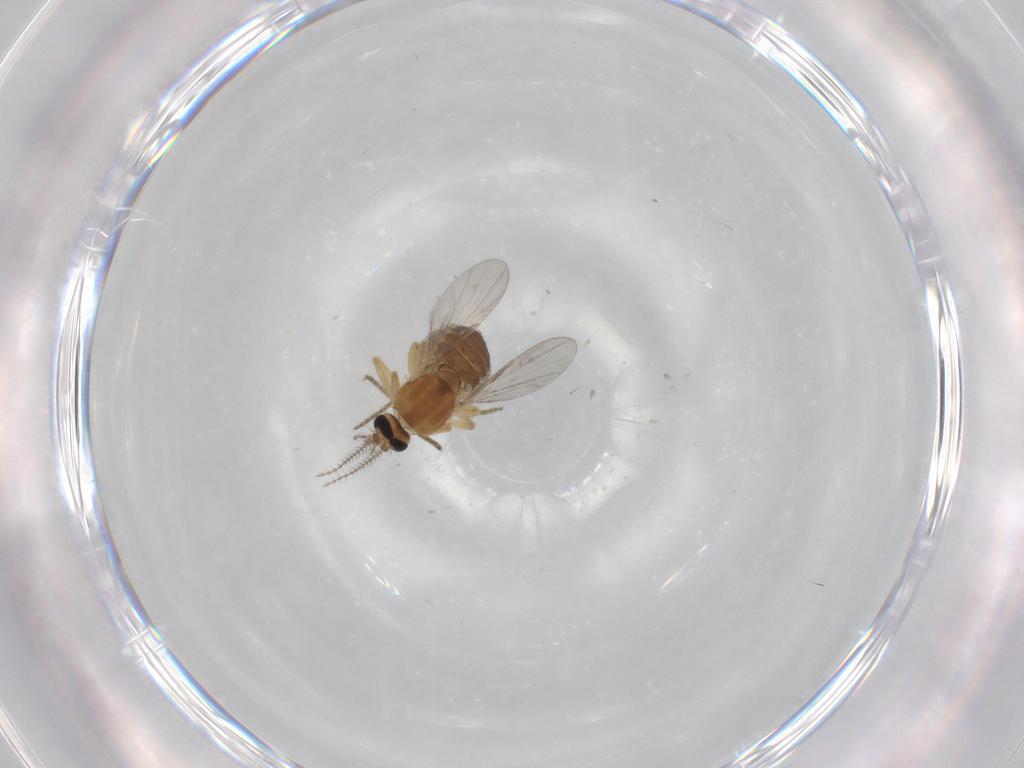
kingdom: Animalia
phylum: Arthropoda
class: Insecta
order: Diptera
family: Ceratopogonidae
